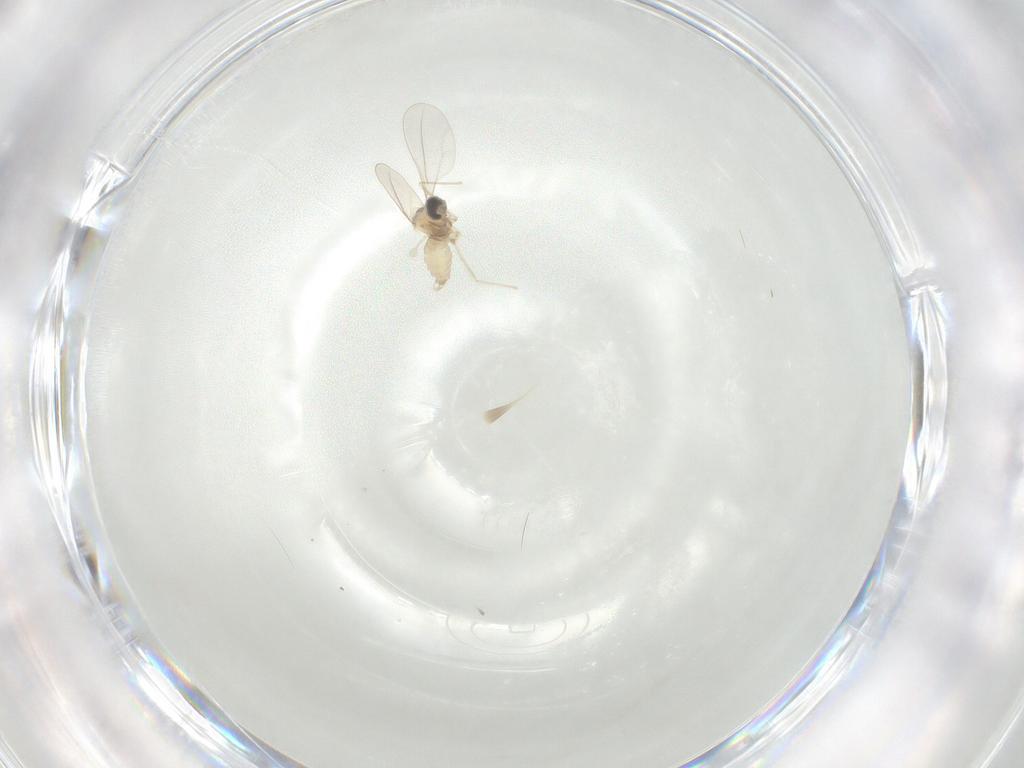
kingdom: Animalia
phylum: Arthropoda
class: Insecta
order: Diptera
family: Cecidomyiidae
